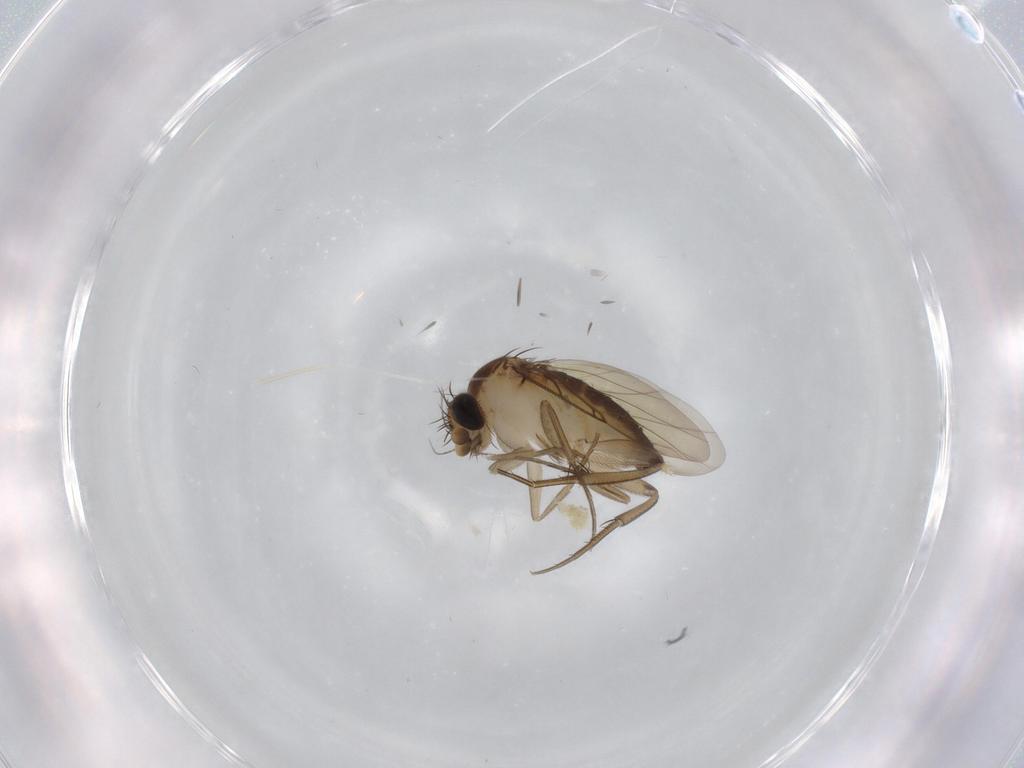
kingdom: Animalia
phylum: Arthropoda
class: Insecta
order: Diptera
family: Phoridae
